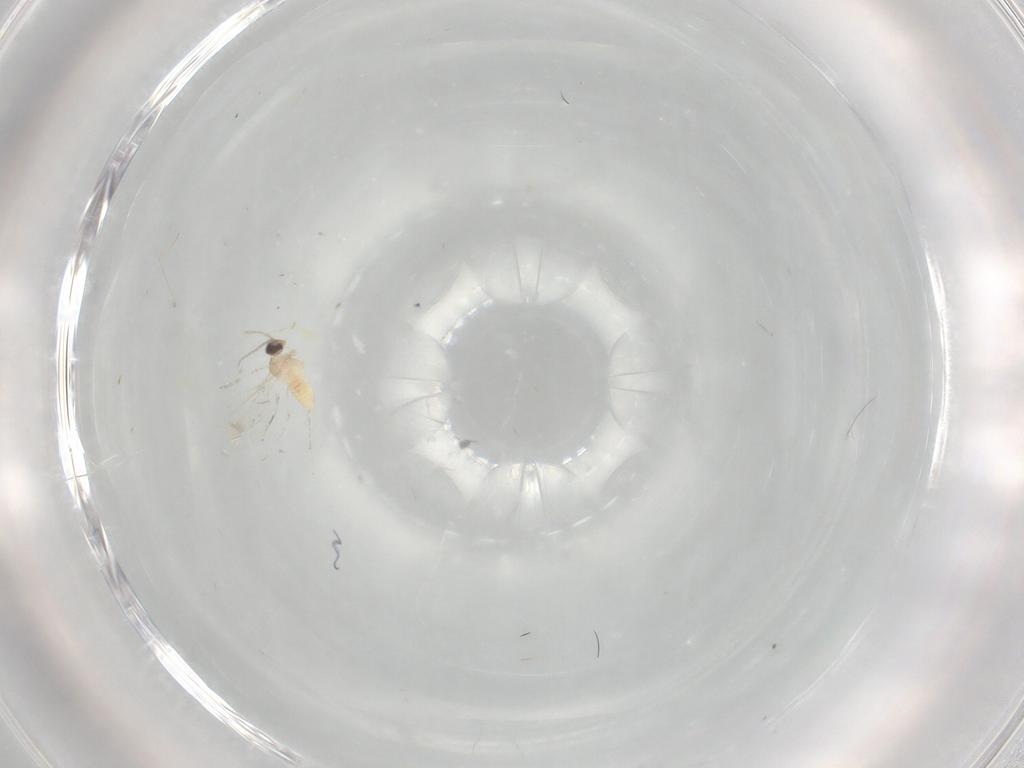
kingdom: Animalia
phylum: Arthropoda
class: Insecta
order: Diptera
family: Cecidomyiidae
